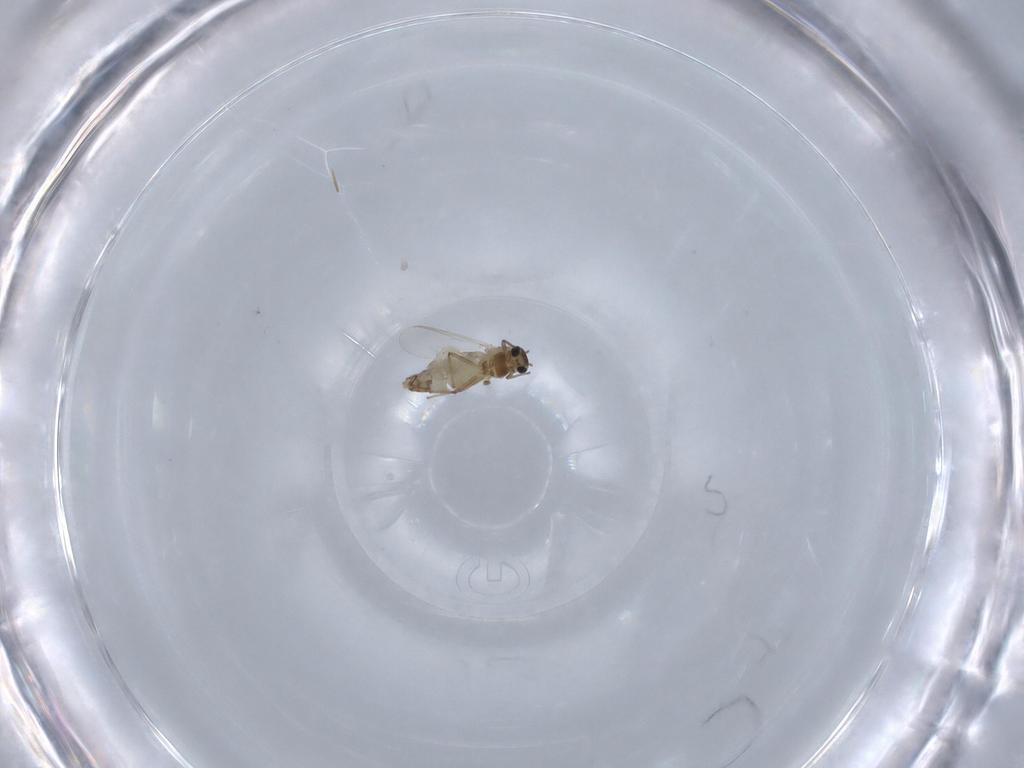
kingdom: Animalia
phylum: Arthropoda
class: Insecta
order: Diptera
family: Chironomidae
